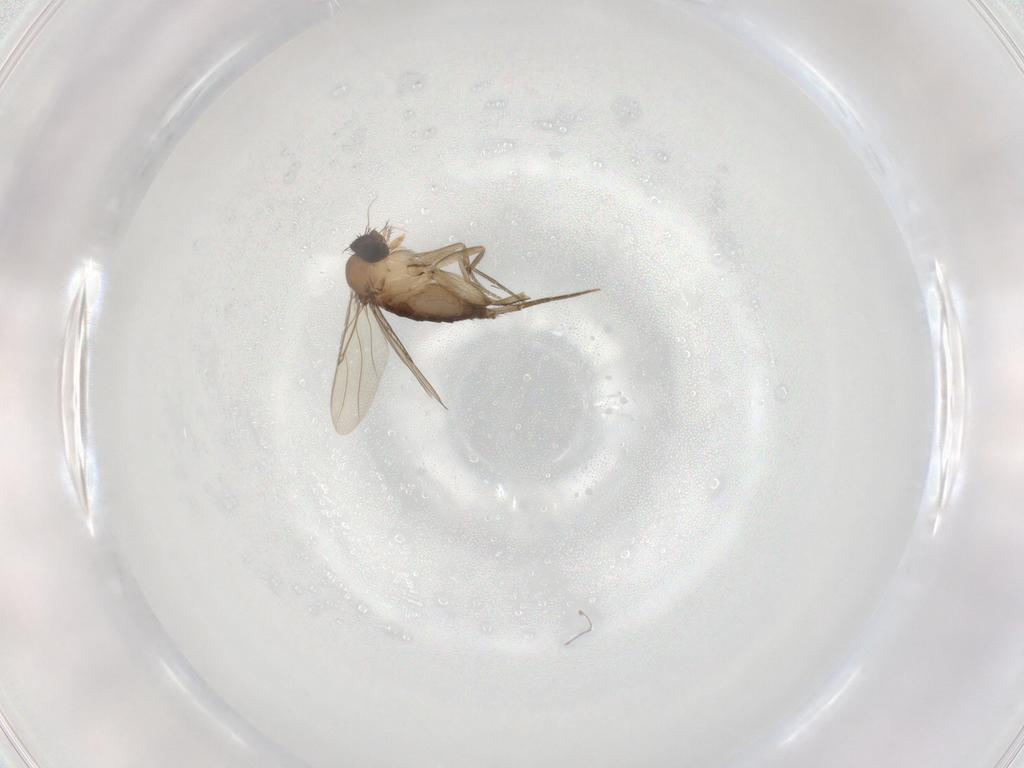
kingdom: Animalia
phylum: Arthropoda
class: Insecta
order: Diptera
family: Phoridae
